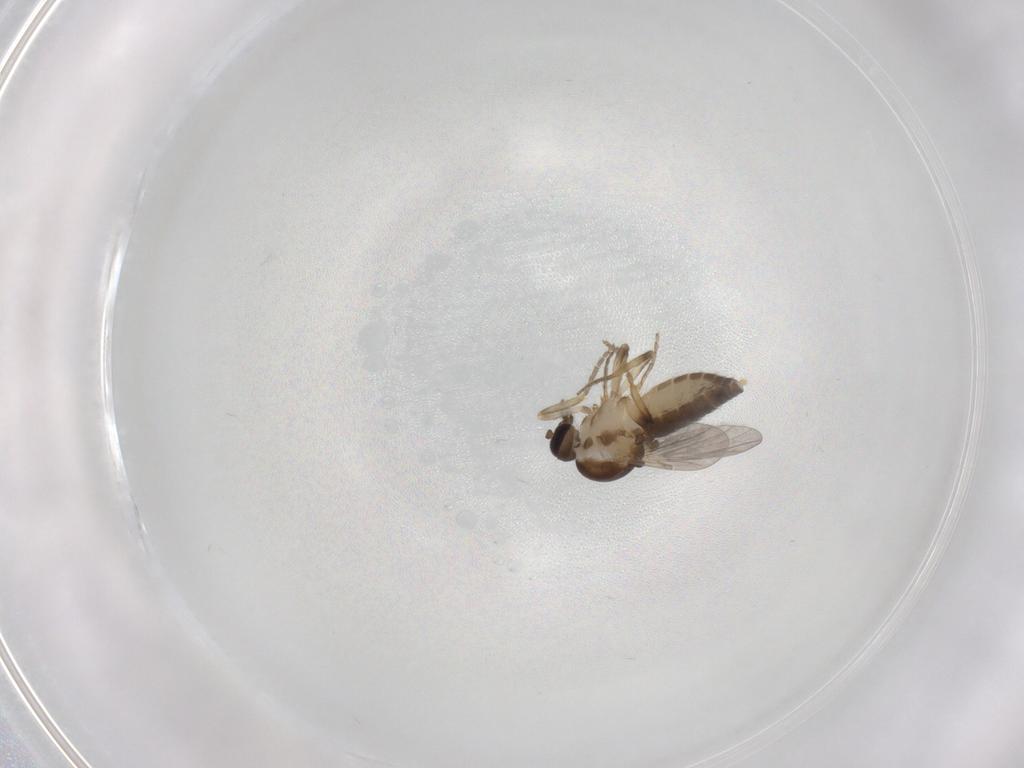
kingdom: Animalia
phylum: Arthropoda
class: Insecta
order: Diptera
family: Ceratopogonidae
